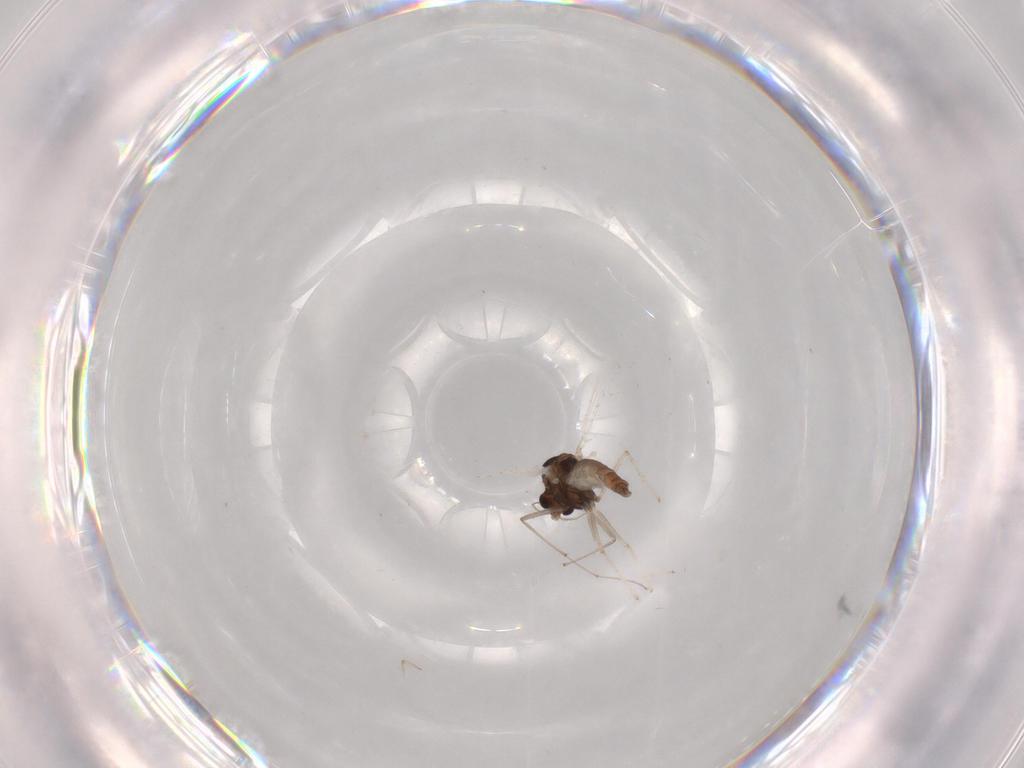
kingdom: Animalia
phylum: Arthropoda
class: Insecta
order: Diptera
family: Chironomidae
